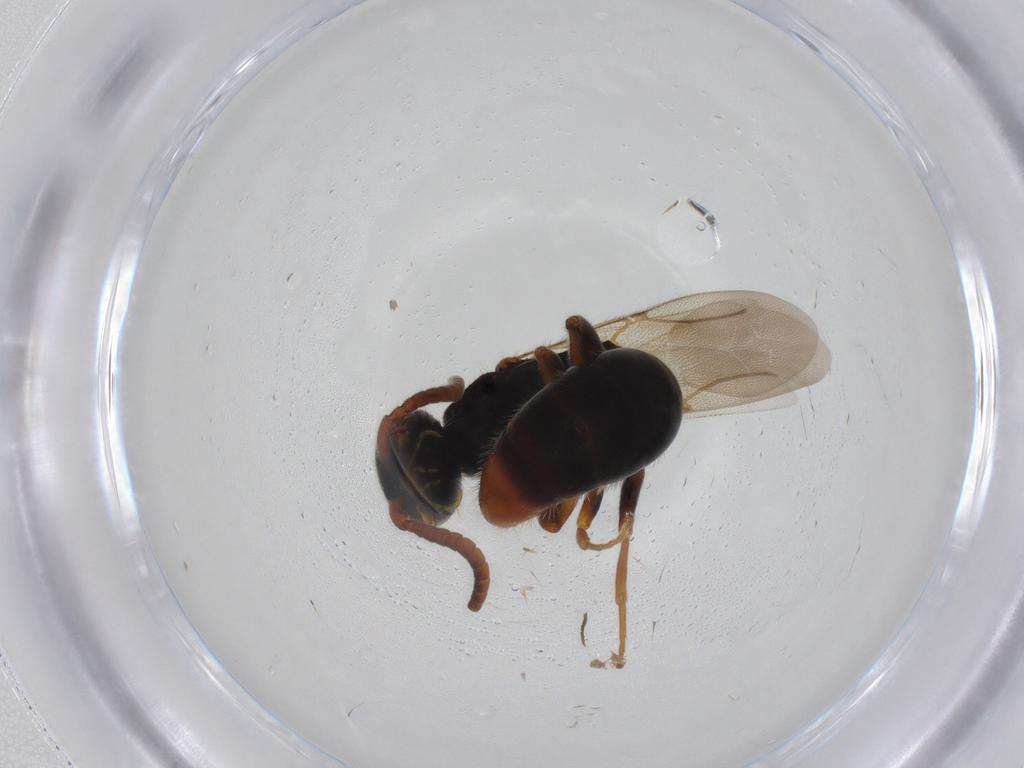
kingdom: Animalia
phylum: Arthropoda
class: Insecta
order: Hymenoptera
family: Bethylidae
